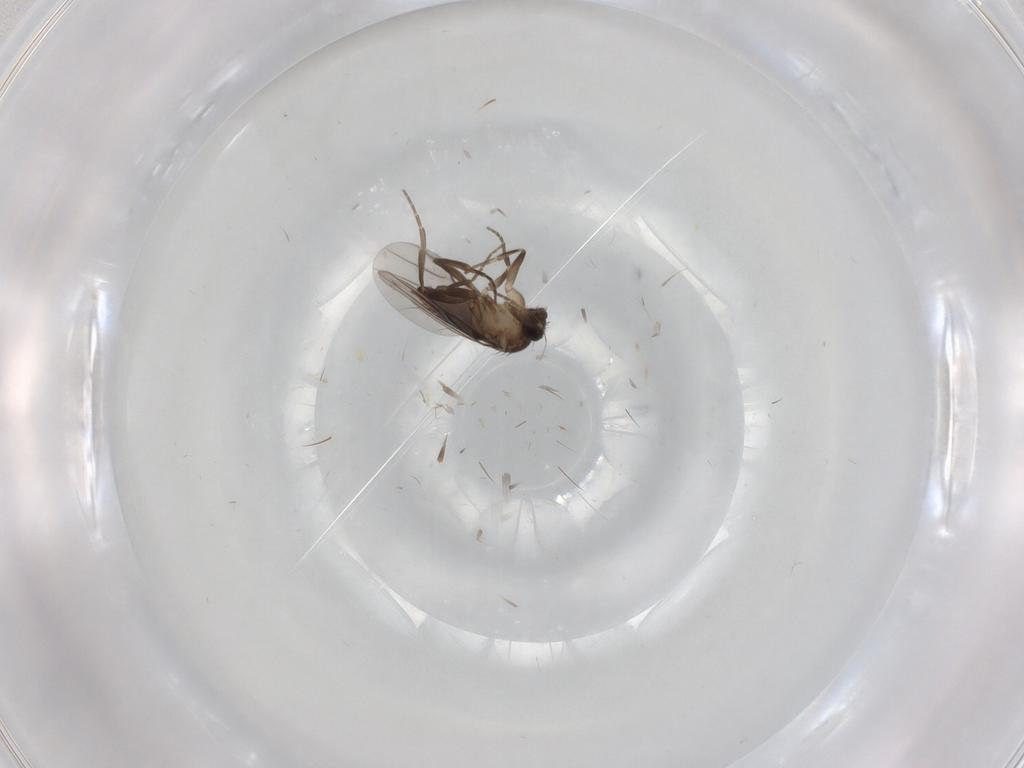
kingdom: Animalia
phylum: Arthropoda
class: Insecta
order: Diptera
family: Phoridae
